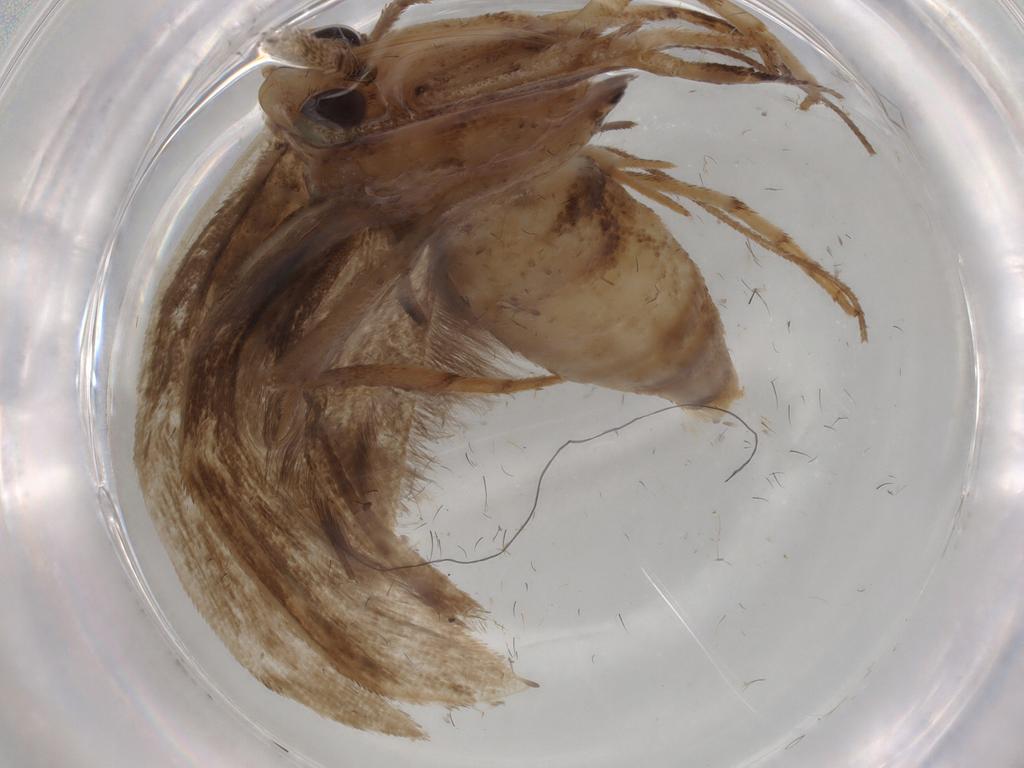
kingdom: Animalia
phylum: Arthropoda
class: Insecta
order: Lepidoptera
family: Yponomeutidae
